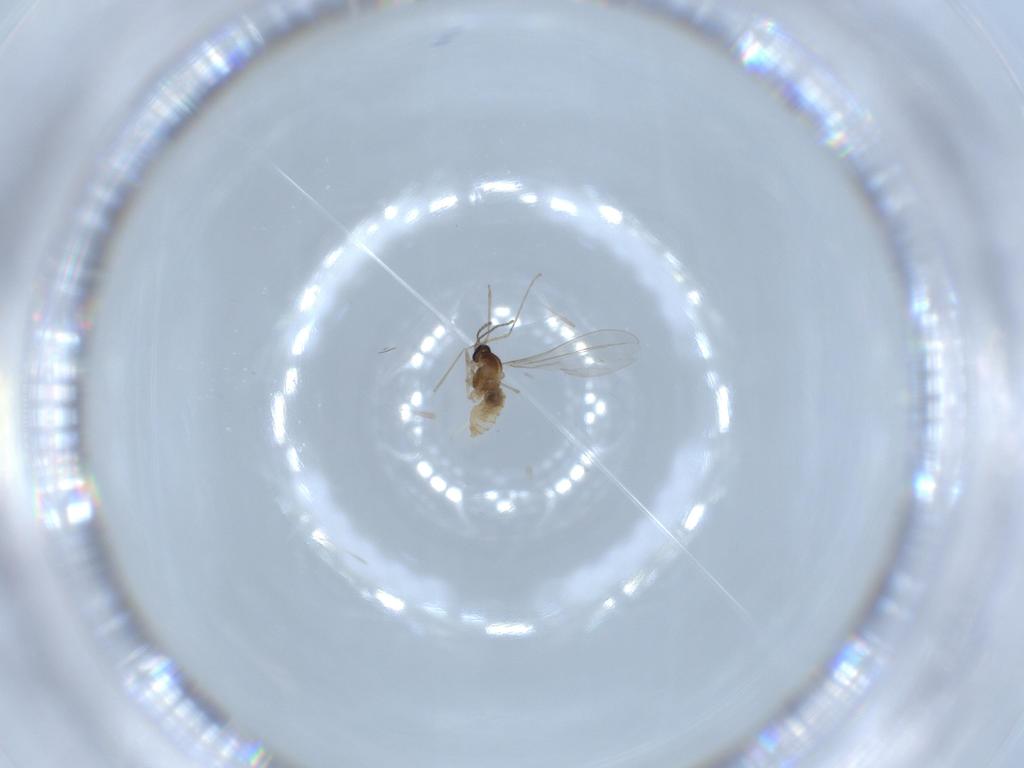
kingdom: Animalia
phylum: Arthropoda
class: Insecta
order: Diptera
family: Cecidomyiidae
